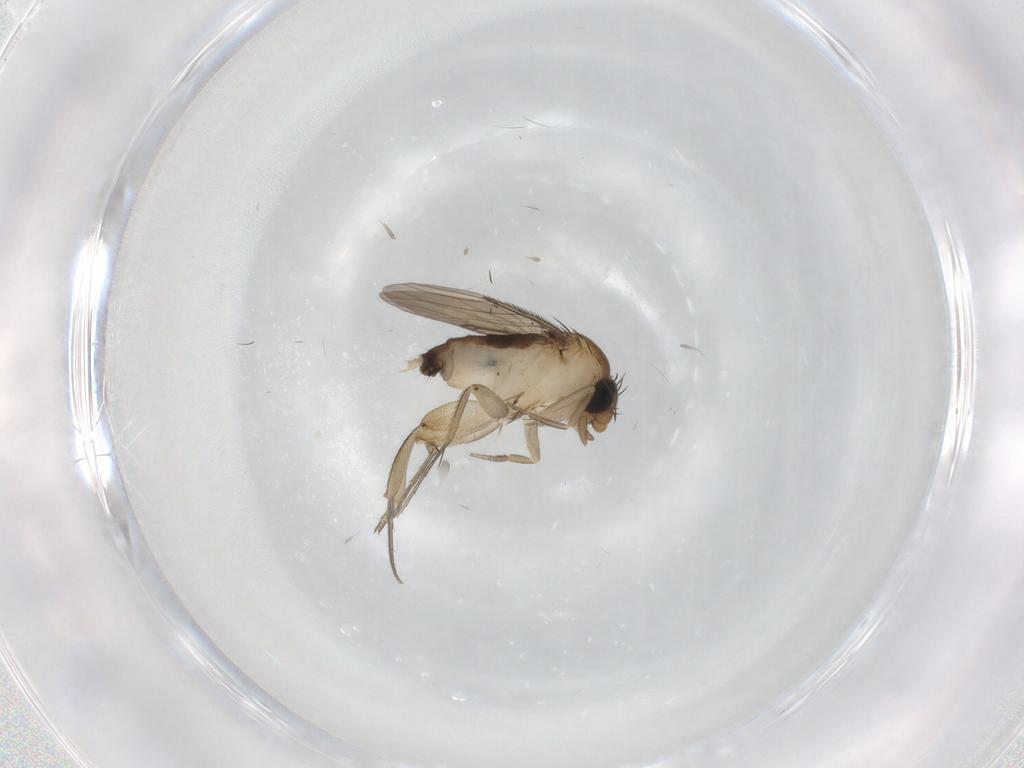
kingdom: Animalia
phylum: Arthropoda
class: Insecta
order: Diptera
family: Phoridae
